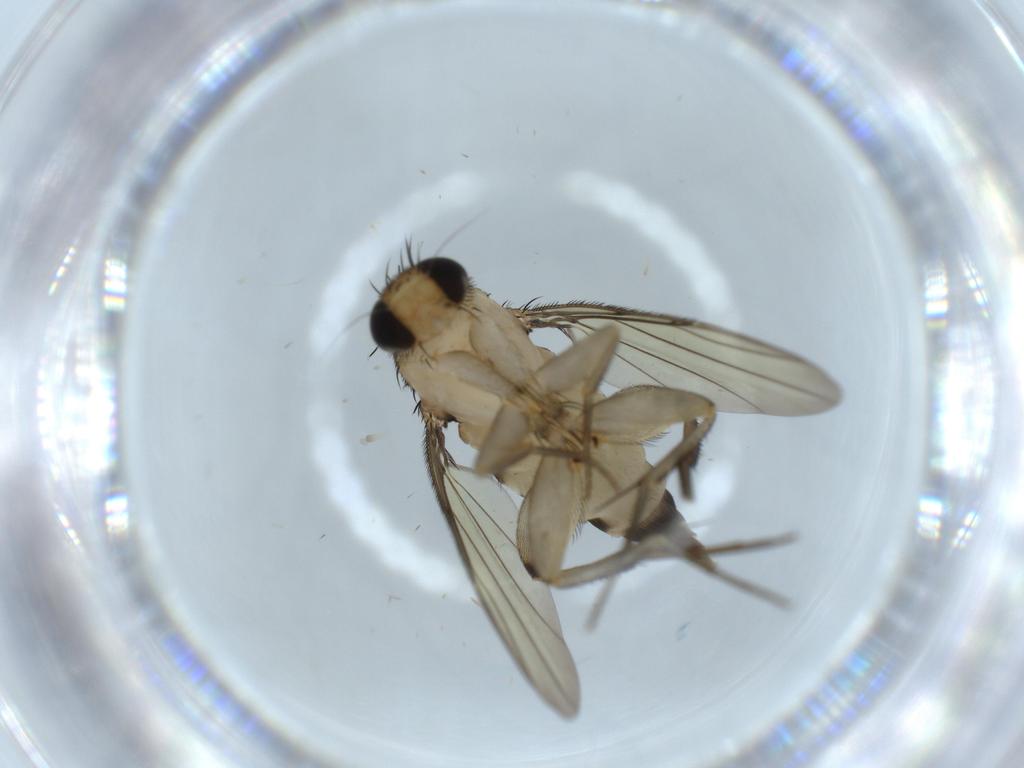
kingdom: Animalia
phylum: Arthropoda
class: Insecta
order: Diptera
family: Phoridae
